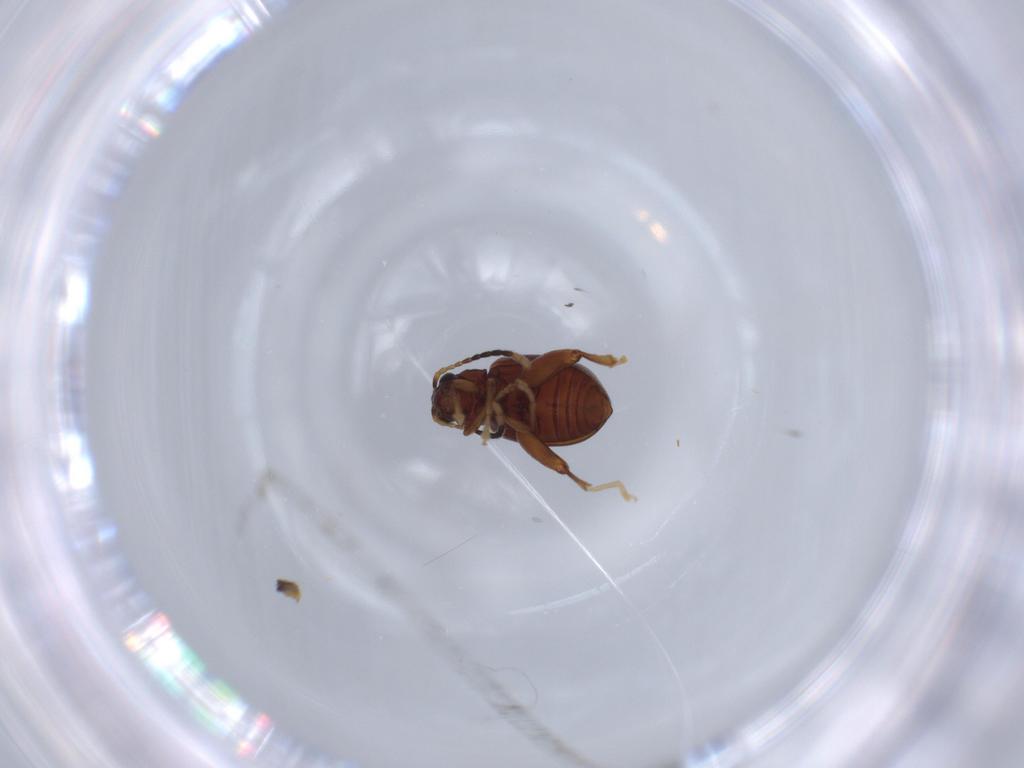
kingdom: Animalia
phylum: Arthropoda
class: Insecta
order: Coleoptera
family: Chrysomelidae
